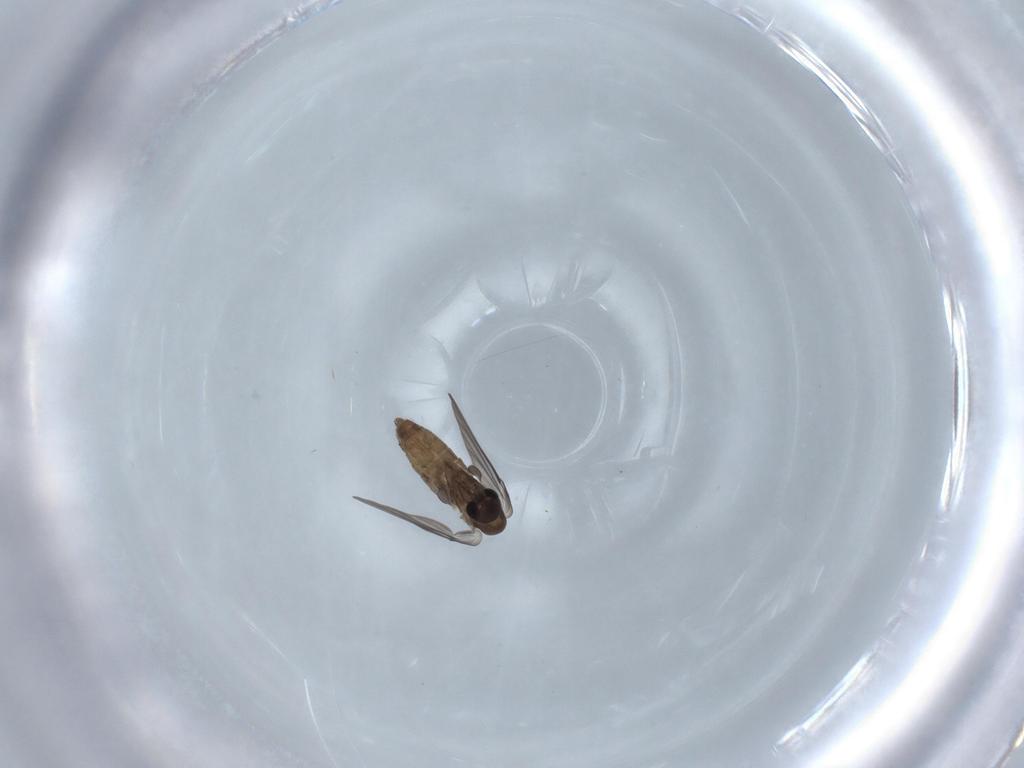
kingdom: Animalia
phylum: Arthropoda
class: Insecta
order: Diptera
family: Psychodidae
